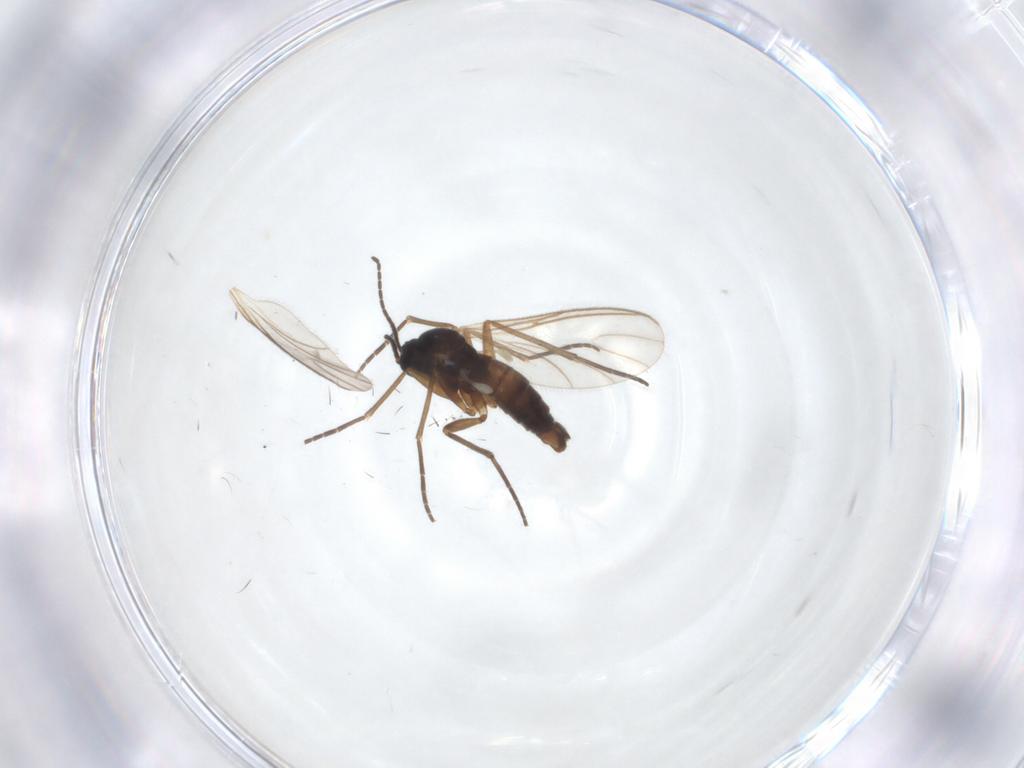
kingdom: Animalia
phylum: Arthropoda
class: Insecta
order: Diptera
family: Sciaridae
